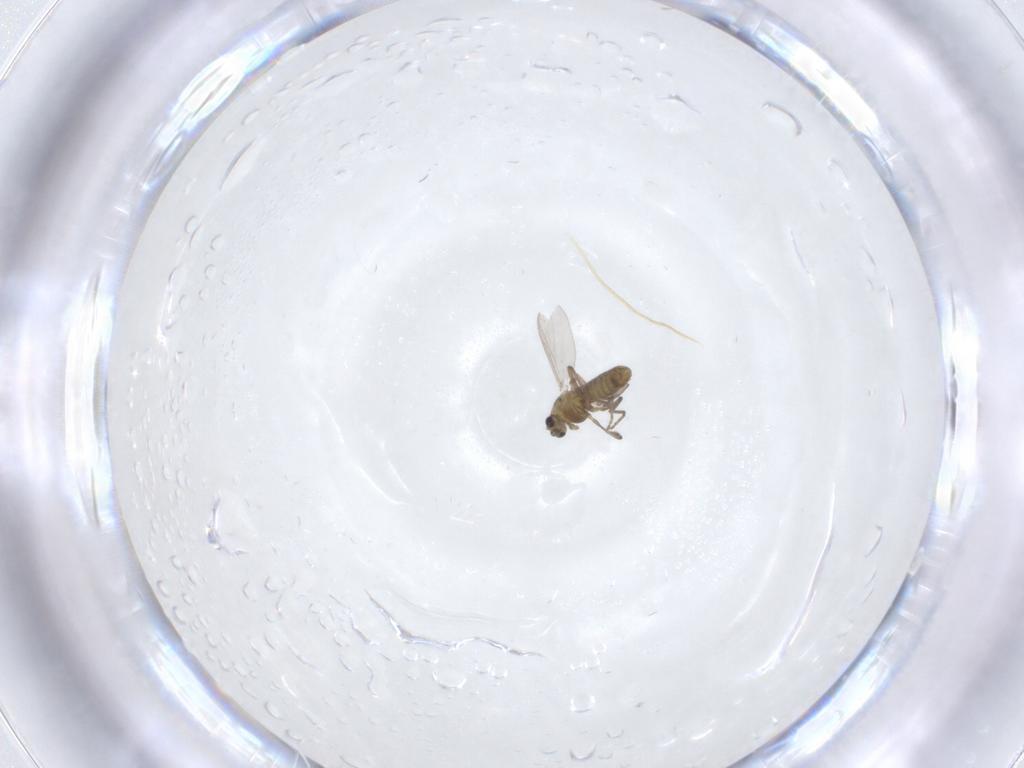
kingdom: Animalia
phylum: Arthropoda
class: Insecta
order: Diptera
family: Chironomidae
